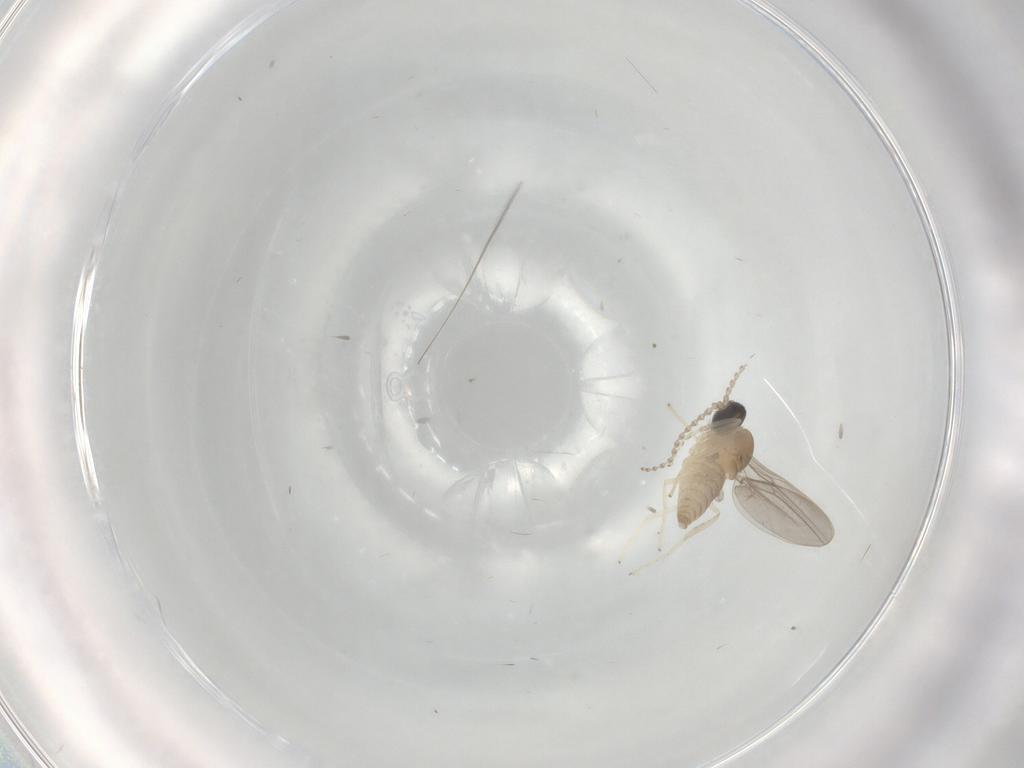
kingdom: Animalia
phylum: Arthropoda
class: Insecta
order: Diptera
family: Cecidomyiidae
